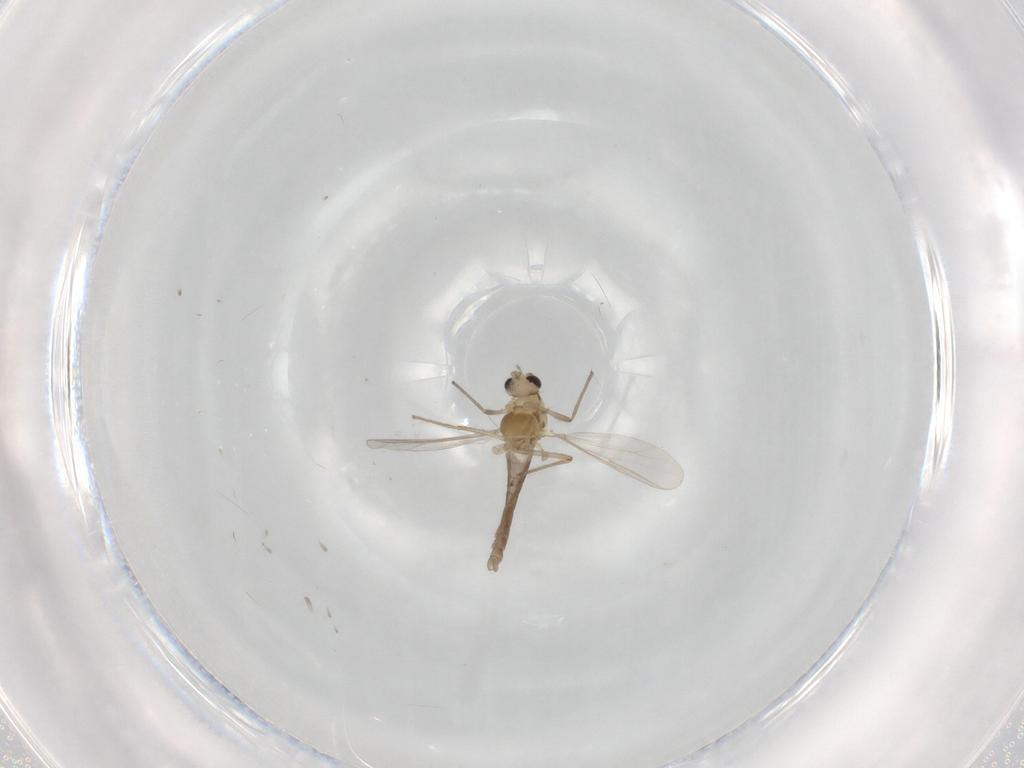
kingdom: Animalia
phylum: Arthropoda
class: Insecta
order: Diptera
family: Chironomidae
